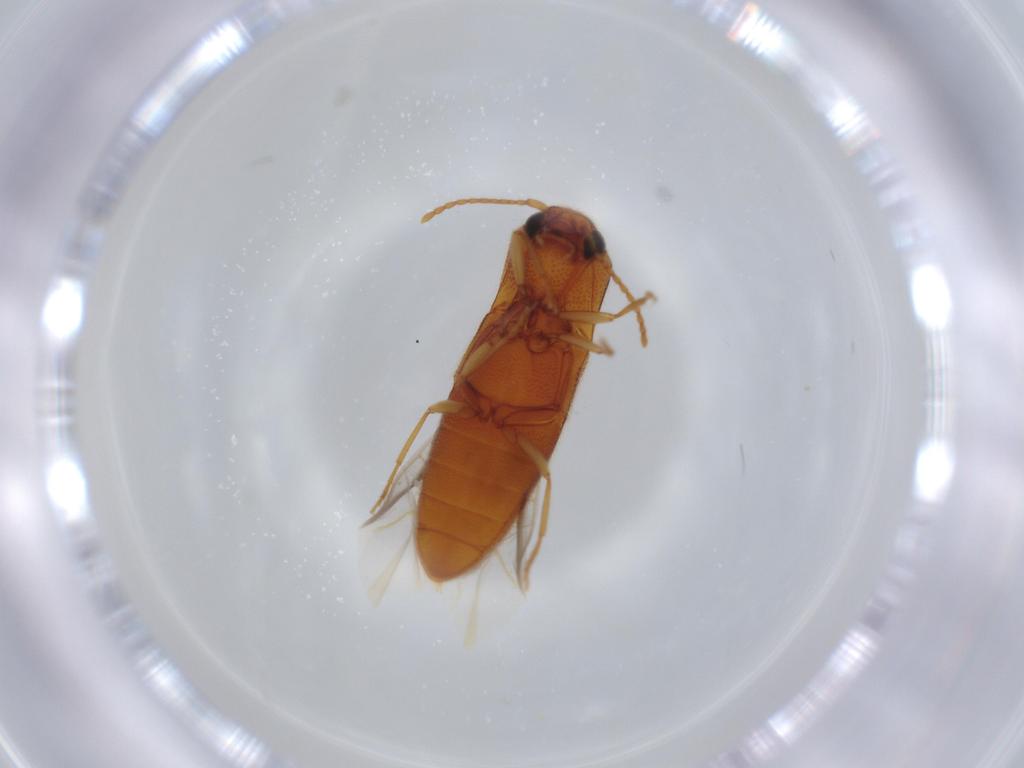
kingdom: Animalia
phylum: Arthropoda
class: Insecta
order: Coleoptera
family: Elateridae
